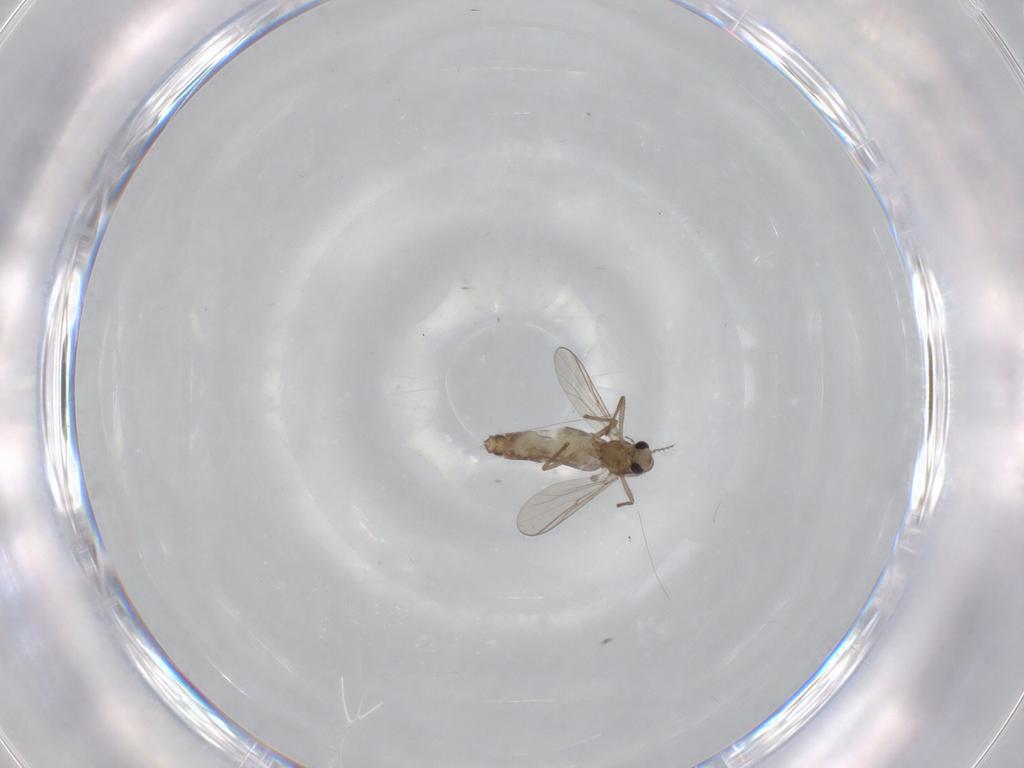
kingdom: Animalia
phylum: Arthropoda
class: Insecta
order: Diptera
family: Chironomidae
